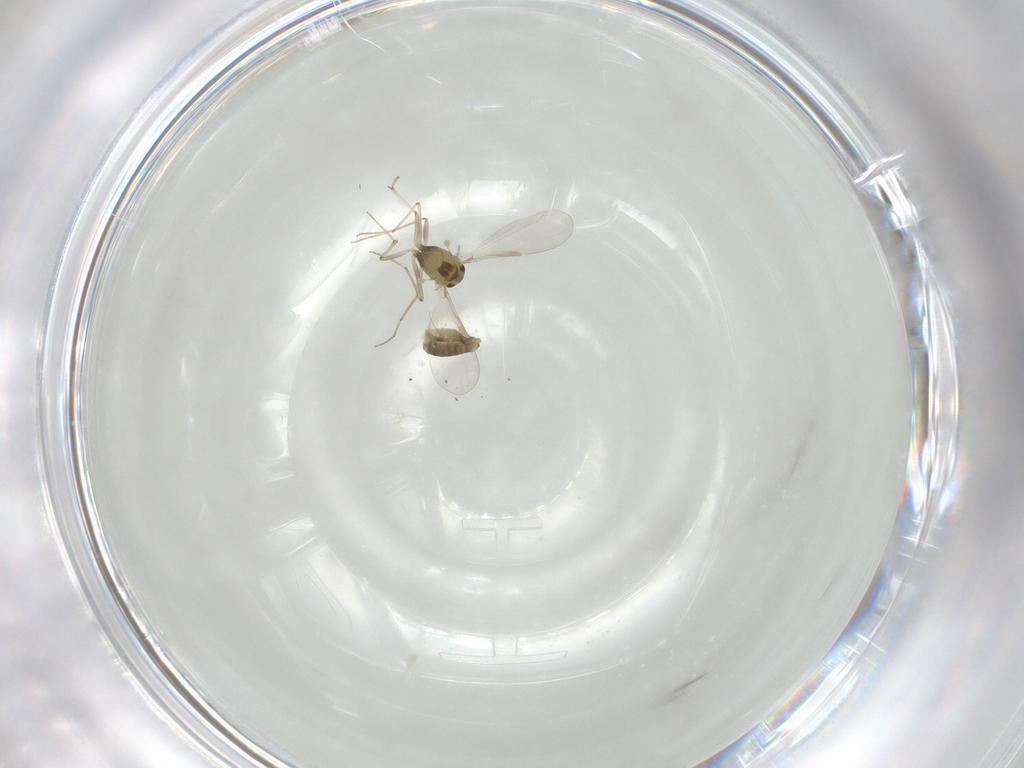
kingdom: Animalia
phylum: Arthropoda
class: Insecta
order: Diptera
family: Chironomidae
